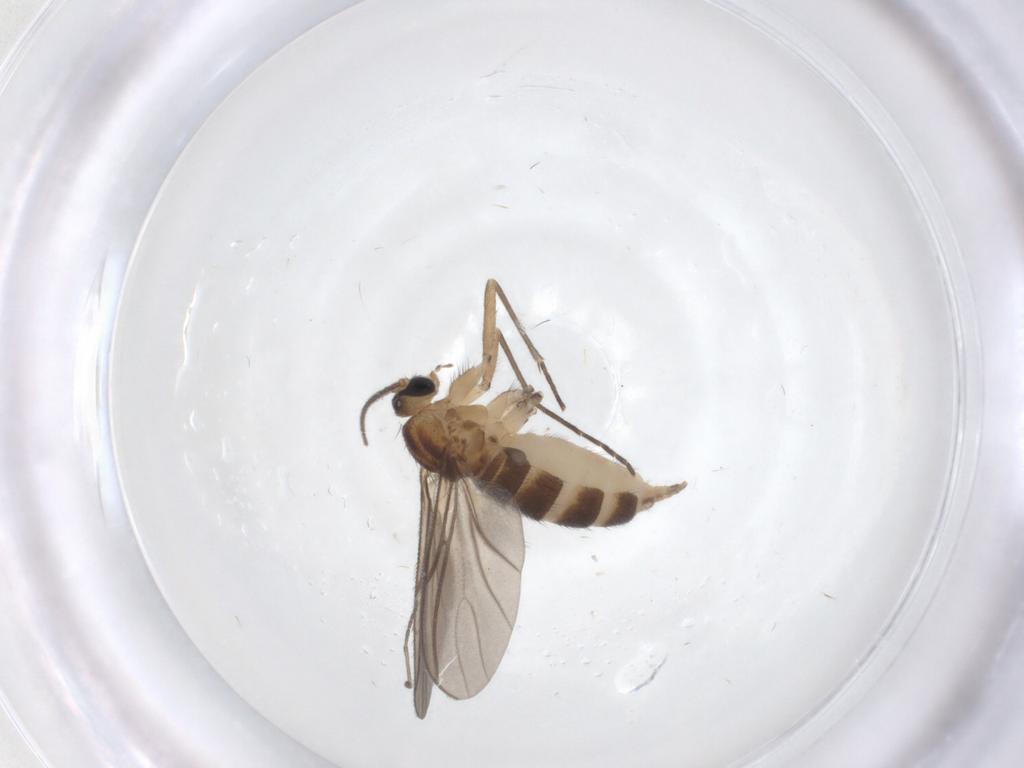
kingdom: Animalia
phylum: Arthropoda
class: Insecta
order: Diptera
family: Sciaridae
